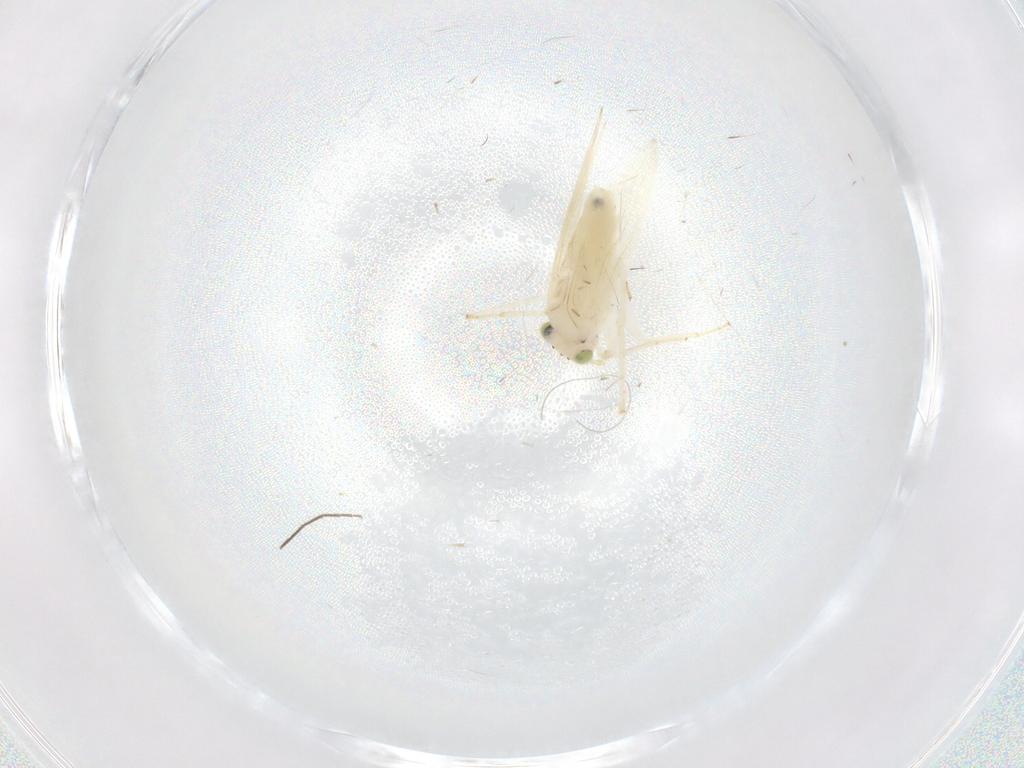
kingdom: Animalia
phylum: Arthropoda
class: Insecta
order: Psocodea
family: Lepidopsocidae
